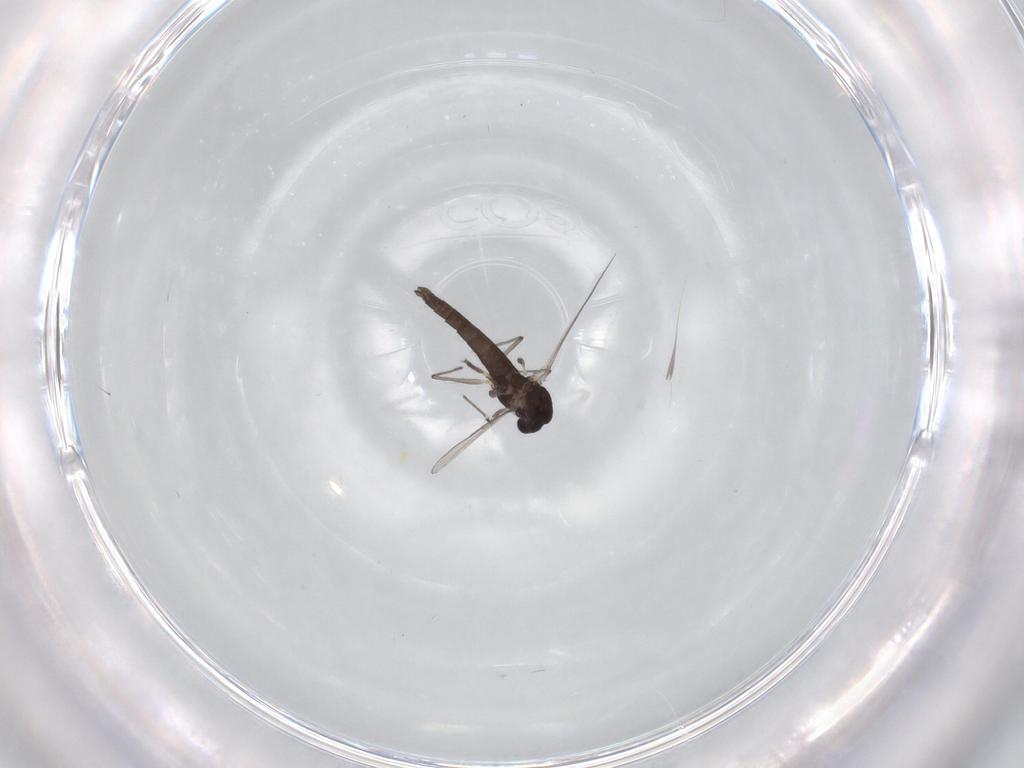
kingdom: Animalia
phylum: Arthropoda
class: Insecta
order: Diptera
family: Chironomidae
